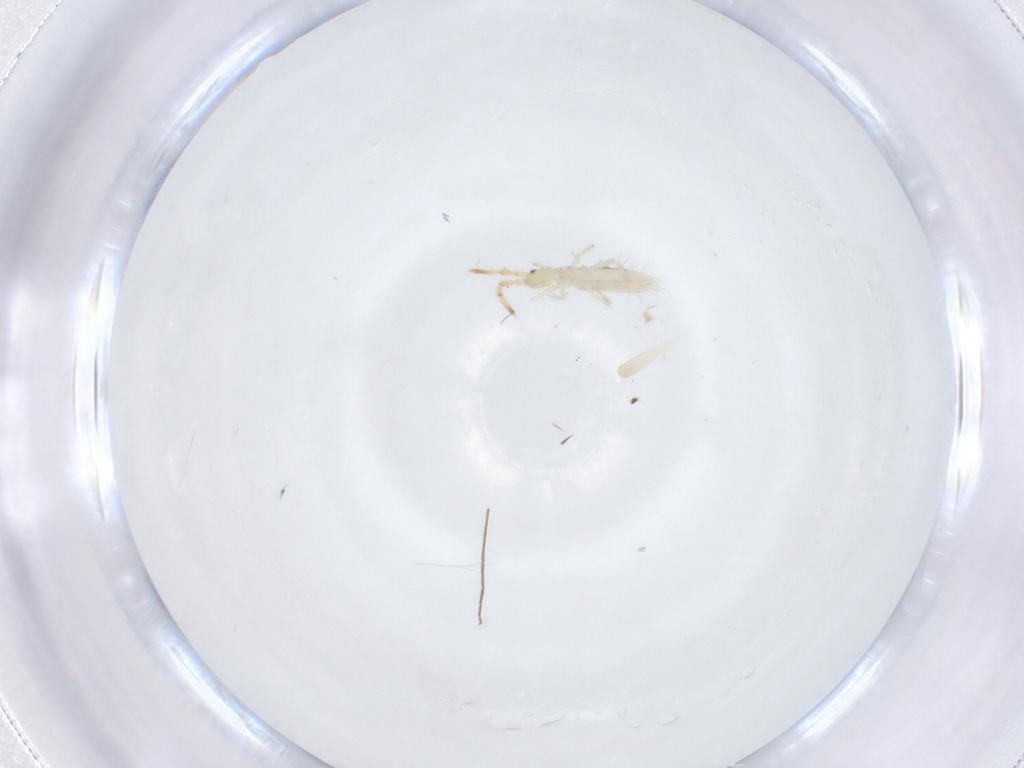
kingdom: Animalia
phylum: Arthropoda
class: Collembola
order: Entomobryomorpha
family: Entomobryidae
